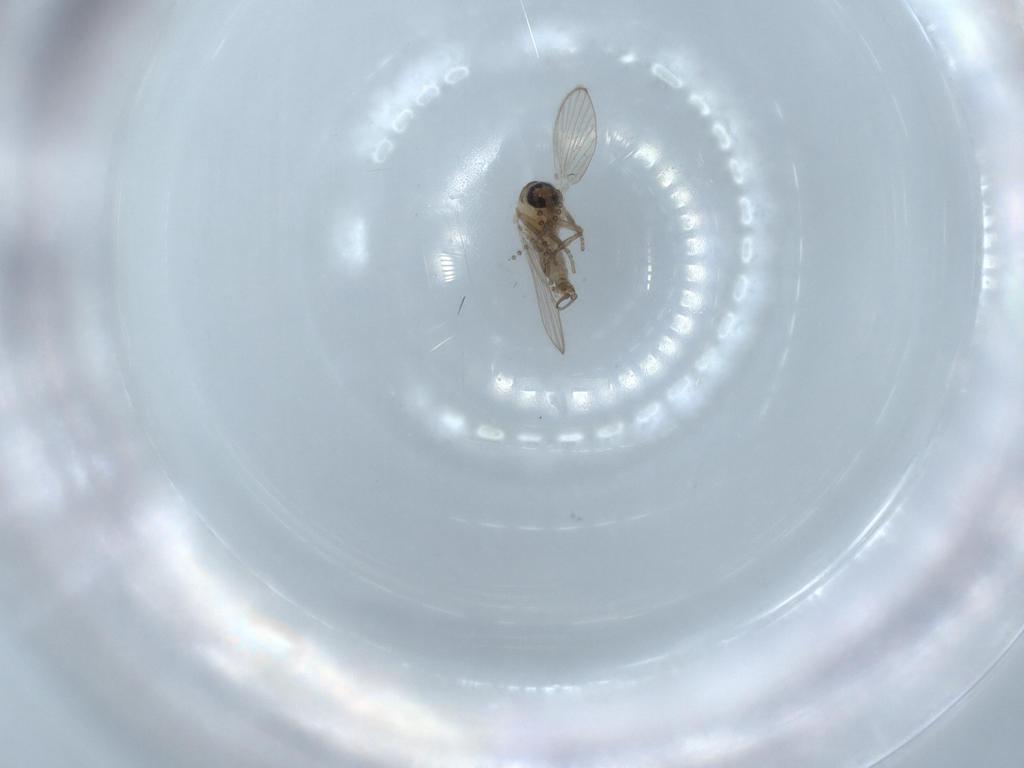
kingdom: Animalia
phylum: Arthropoda
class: Insecta
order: Diptera
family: Psychodidae
